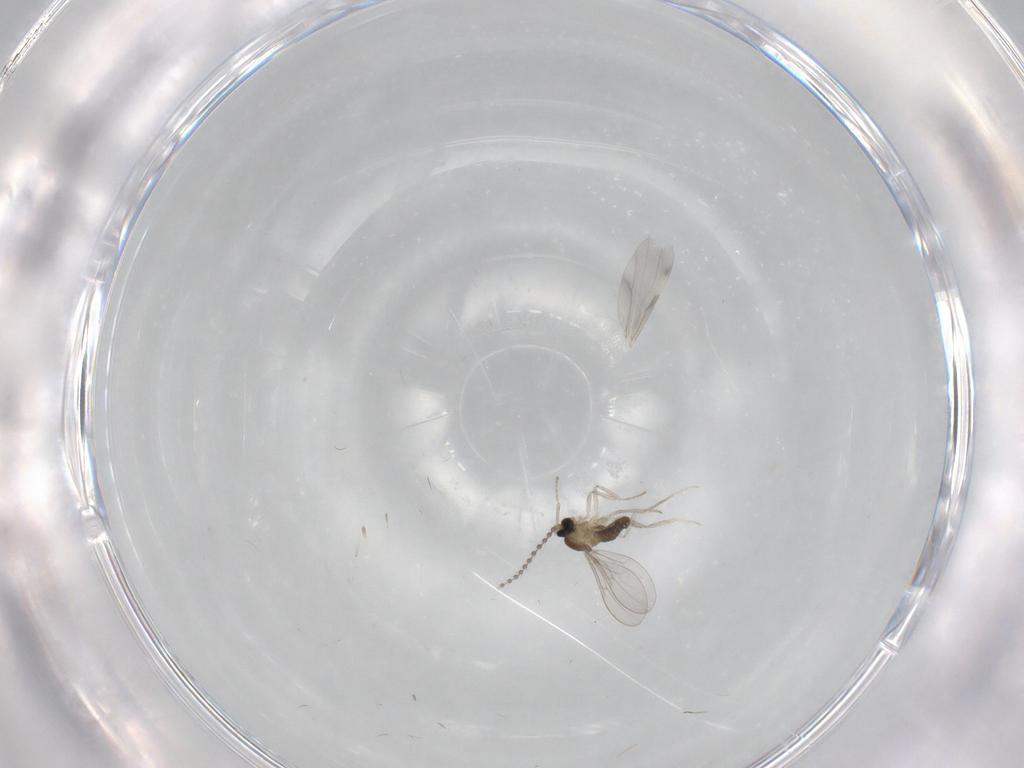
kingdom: Animalia
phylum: Arthropoda
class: Insecta
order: Diptera
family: Cecidomyiidae
